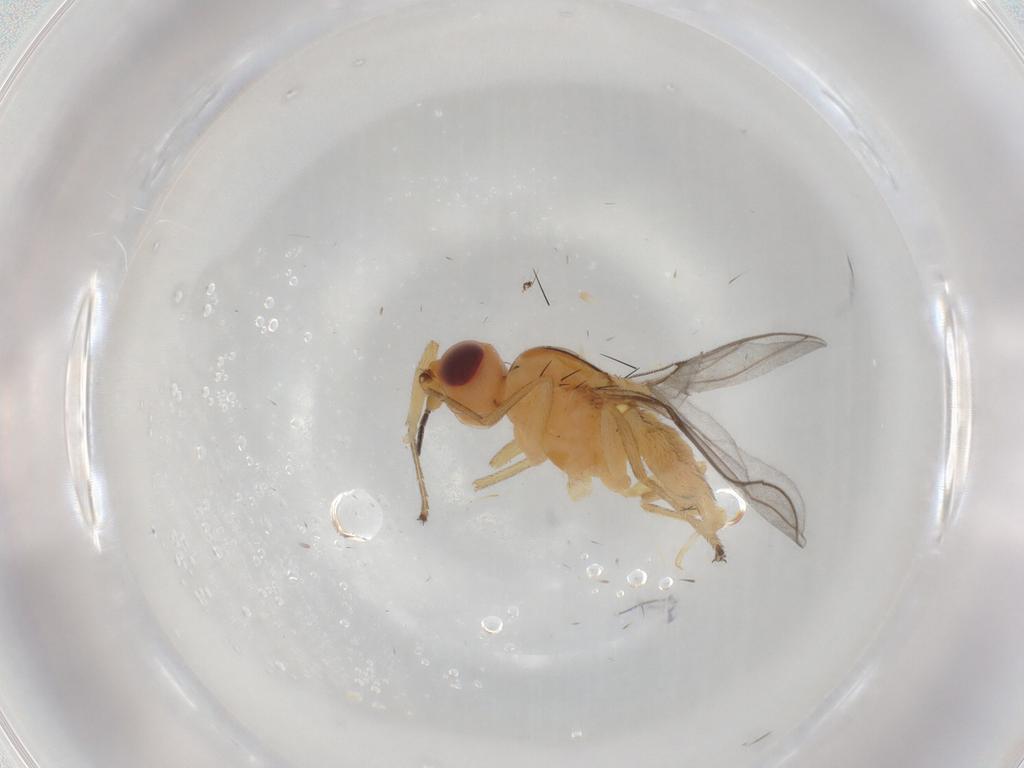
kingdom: Animalia
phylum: Arthropoda
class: Insecta
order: Diptera
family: Chloropidae
